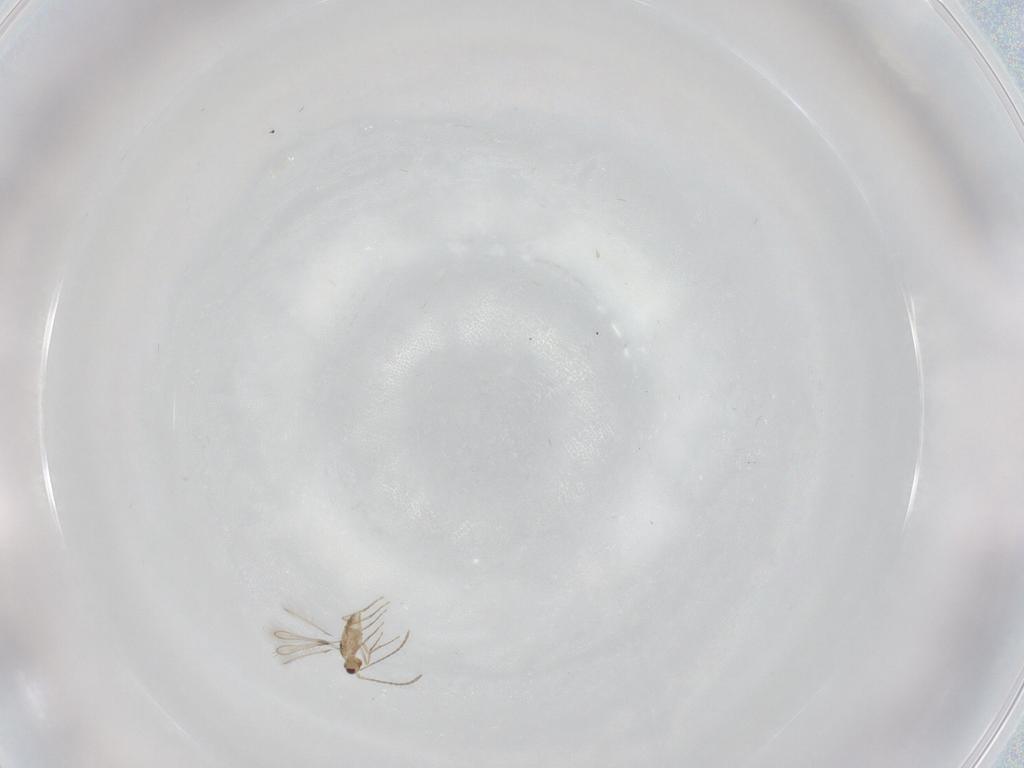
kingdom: Animalia
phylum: Arthropoda
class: Insecta
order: Hymenoptera
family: Mymaridae
